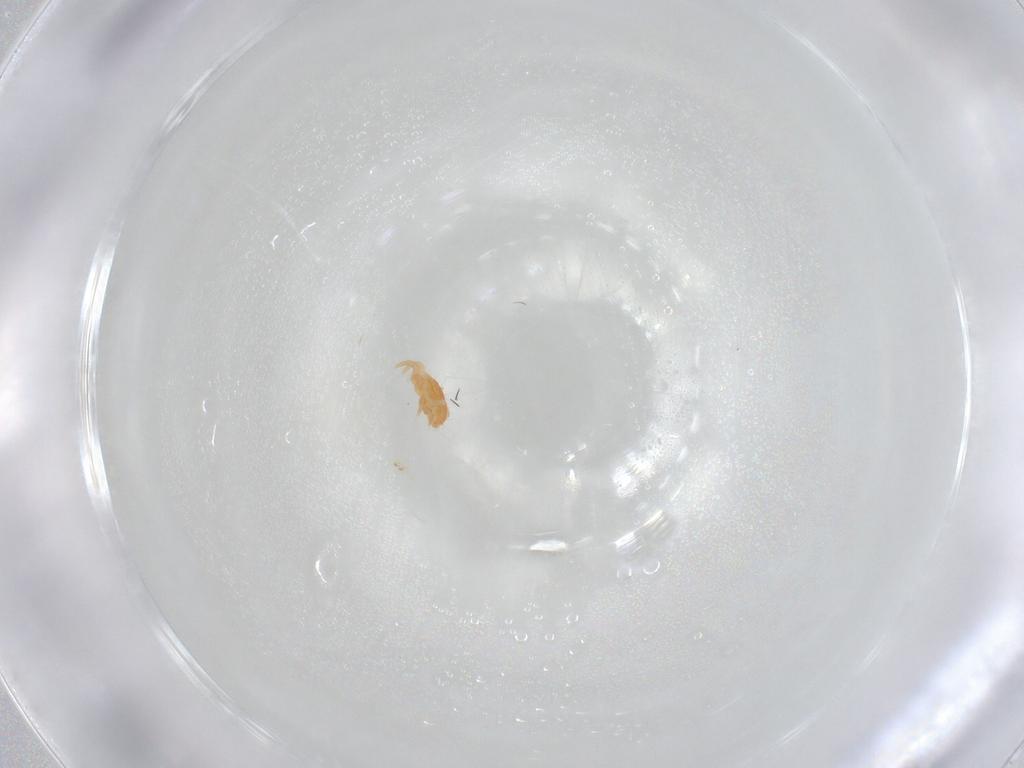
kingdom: Animalia
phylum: Arthropoda
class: Arachnida
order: Mesostigmata
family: Sejidae
